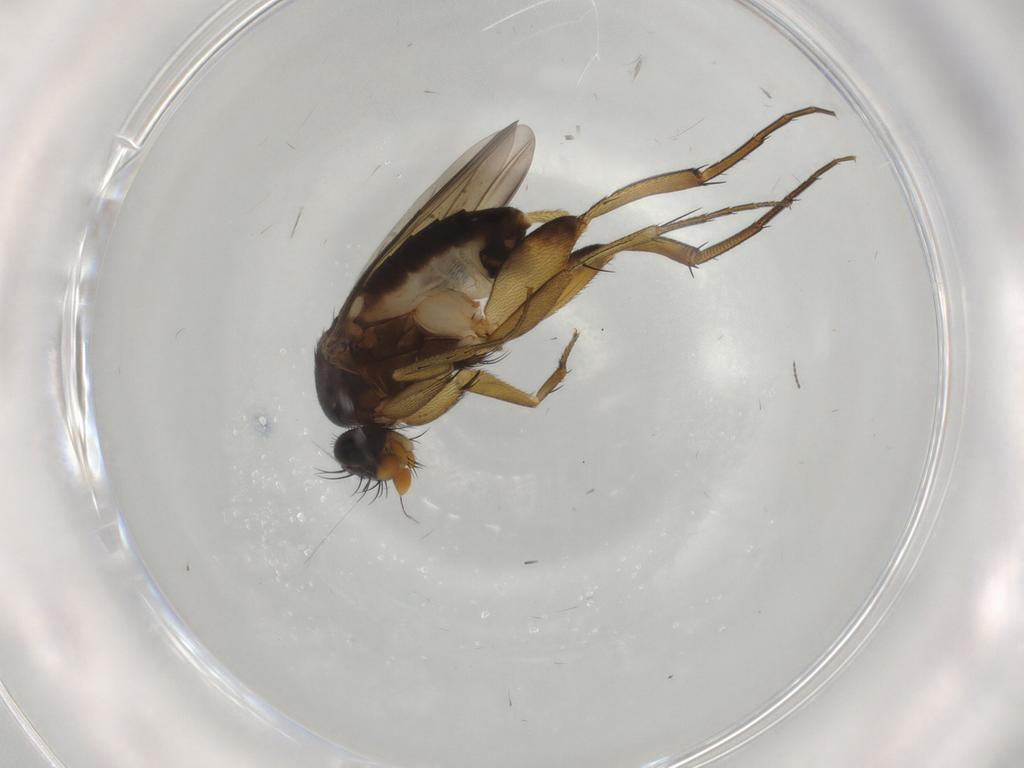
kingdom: Animalia
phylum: Arthropoda
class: Insecta
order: Diptera
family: Phoridae
